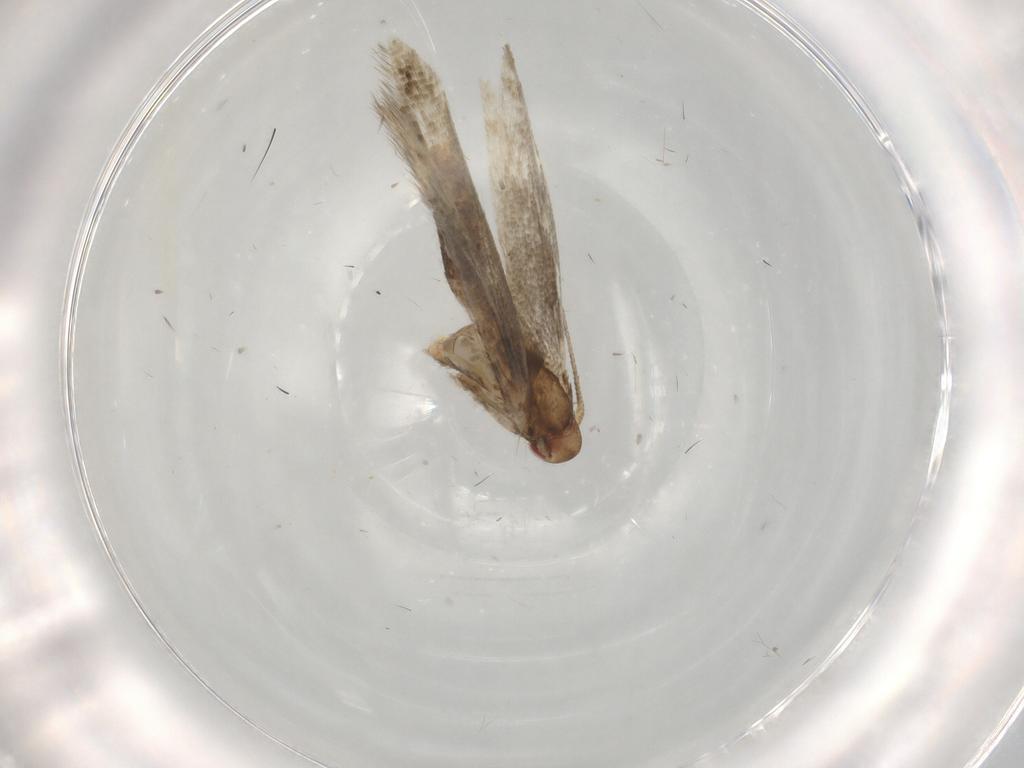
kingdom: Animalia
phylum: Arthropoda
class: Insecta
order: Lepidoptera
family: Momphidae
